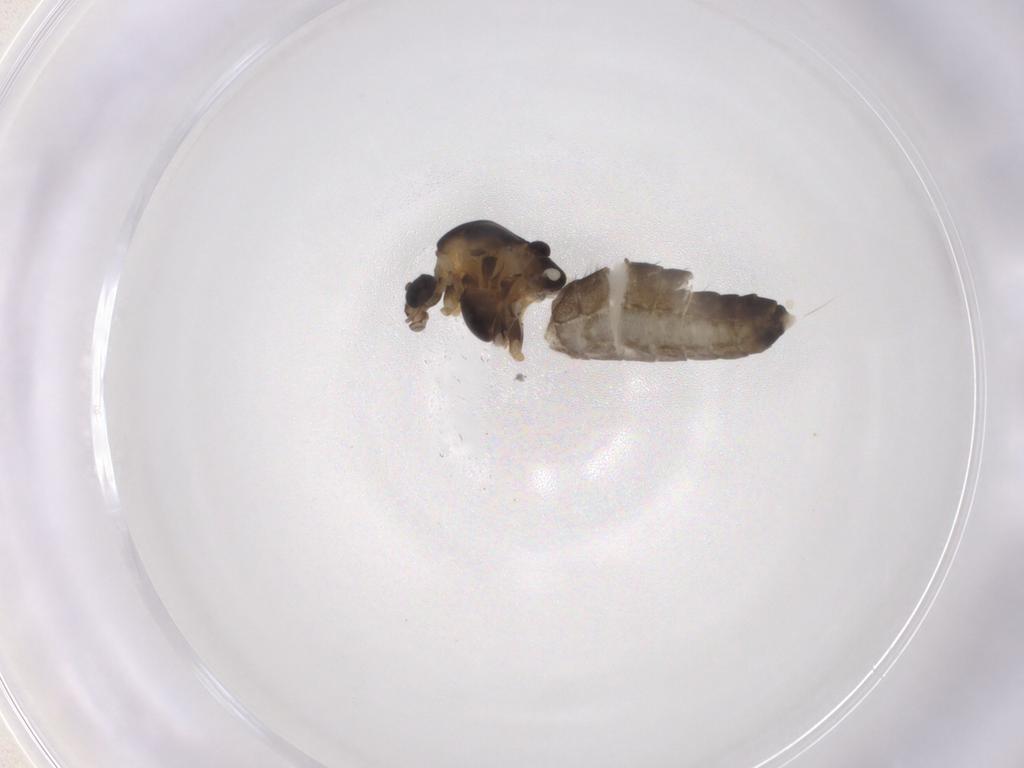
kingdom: Animalia
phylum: Arthropoda
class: Insecta
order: Diptera
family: Chironomidae
